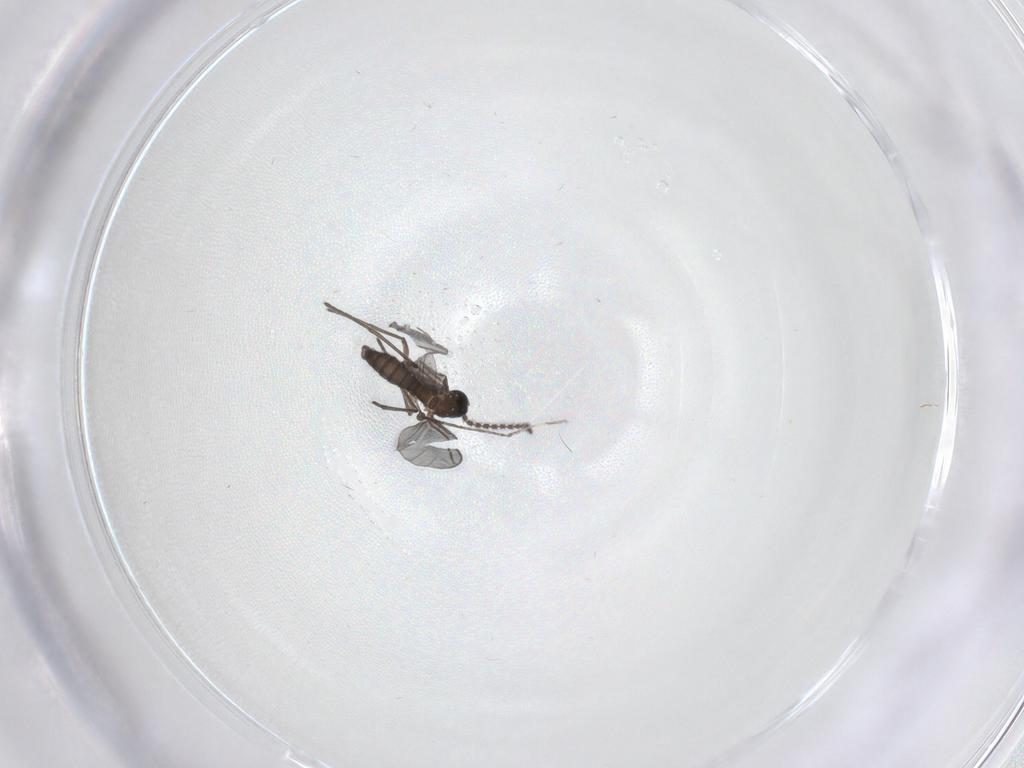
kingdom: Animalia
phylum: Arthropoda
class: Insecta
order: Diptera
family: Cecidomyiidae
